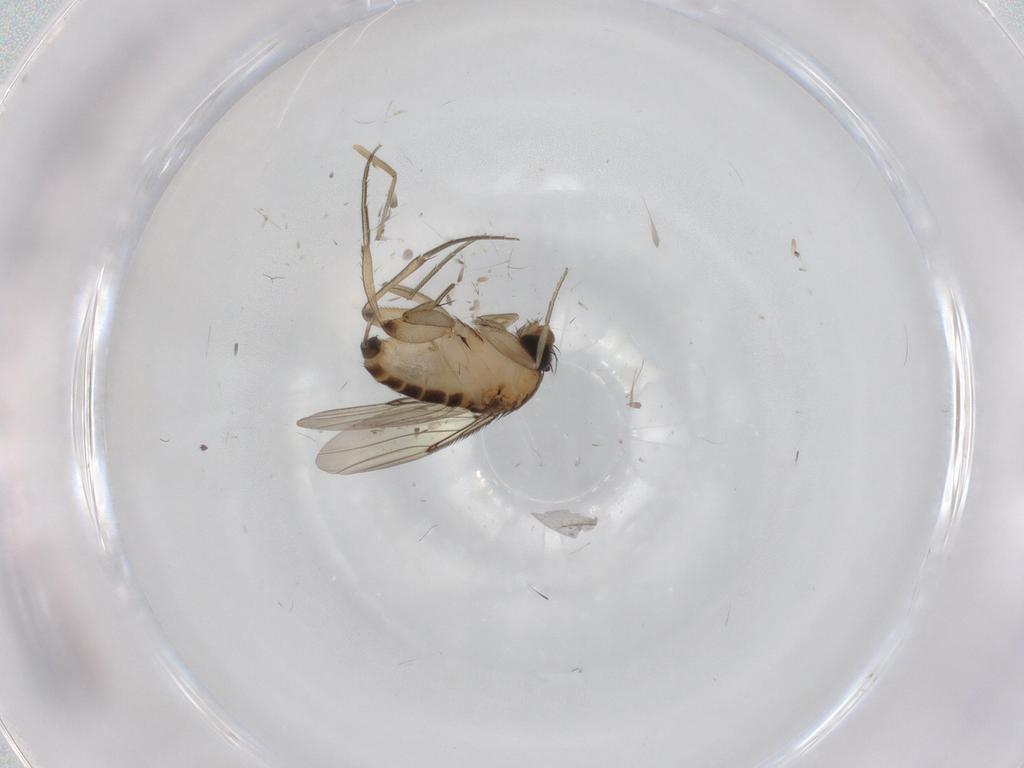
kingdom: Animalia
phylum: Arthropoda
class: Insecta
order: Diptera
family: Phoridae
